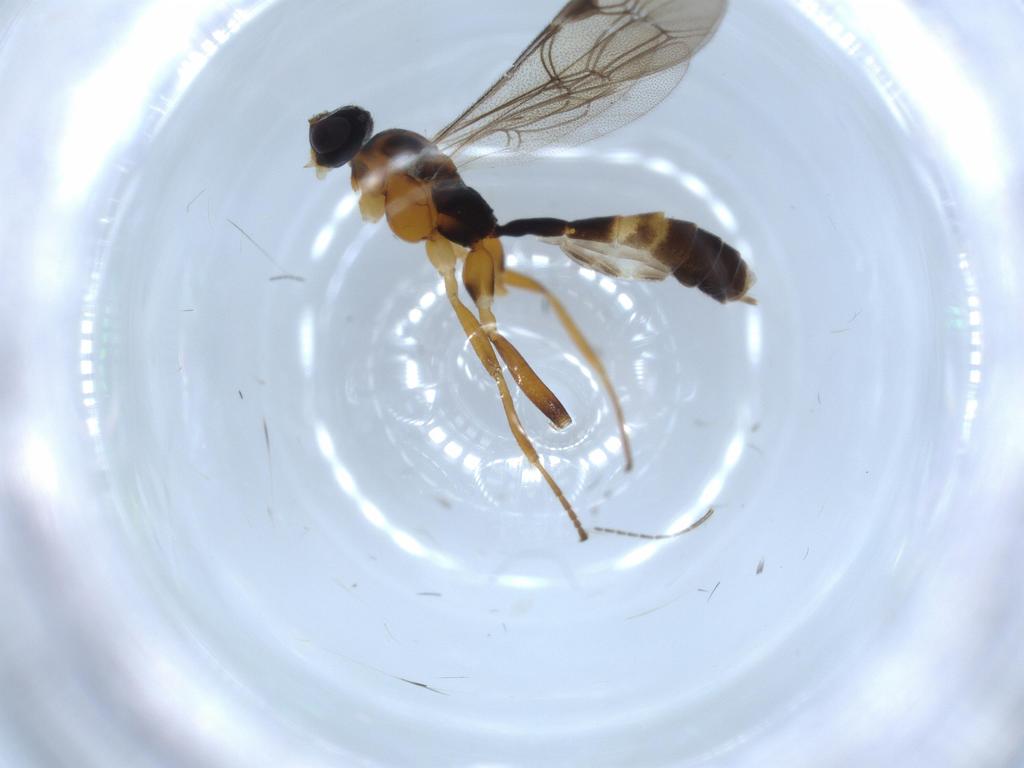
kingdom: Animalia
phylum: Arthropoda
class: Insecta
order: Hymenoptera
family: Ichneumonidae
